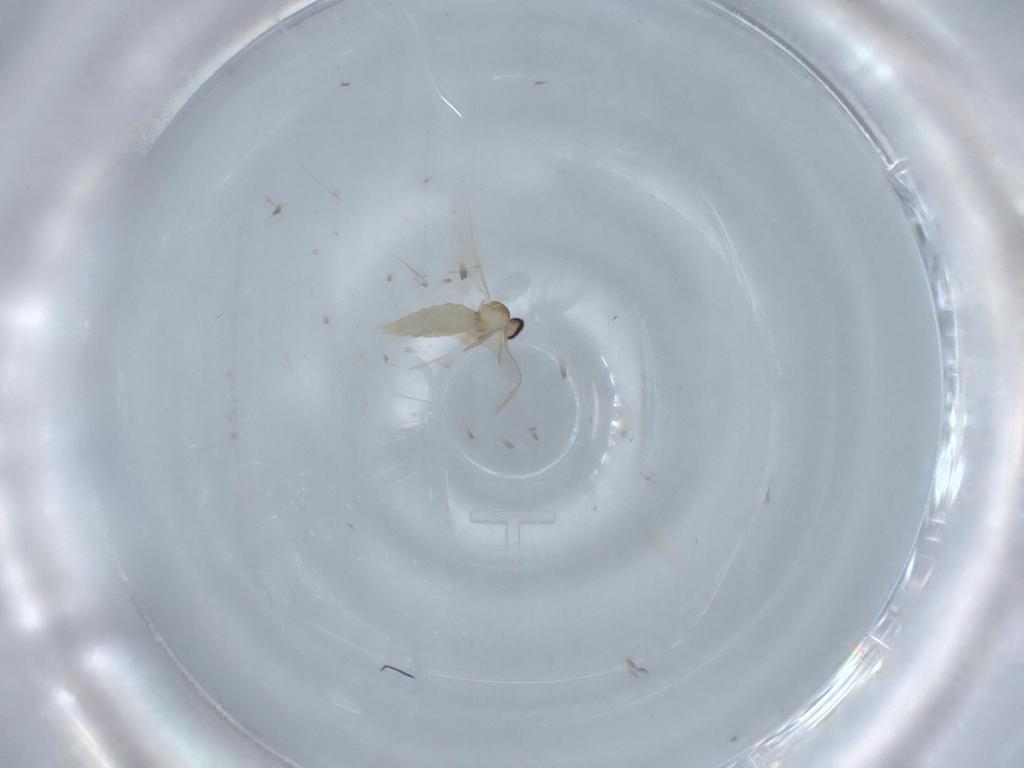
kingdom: Animalia
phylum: Arthropoda
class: Insecta
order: Diptera
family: Cecidomyiidae
